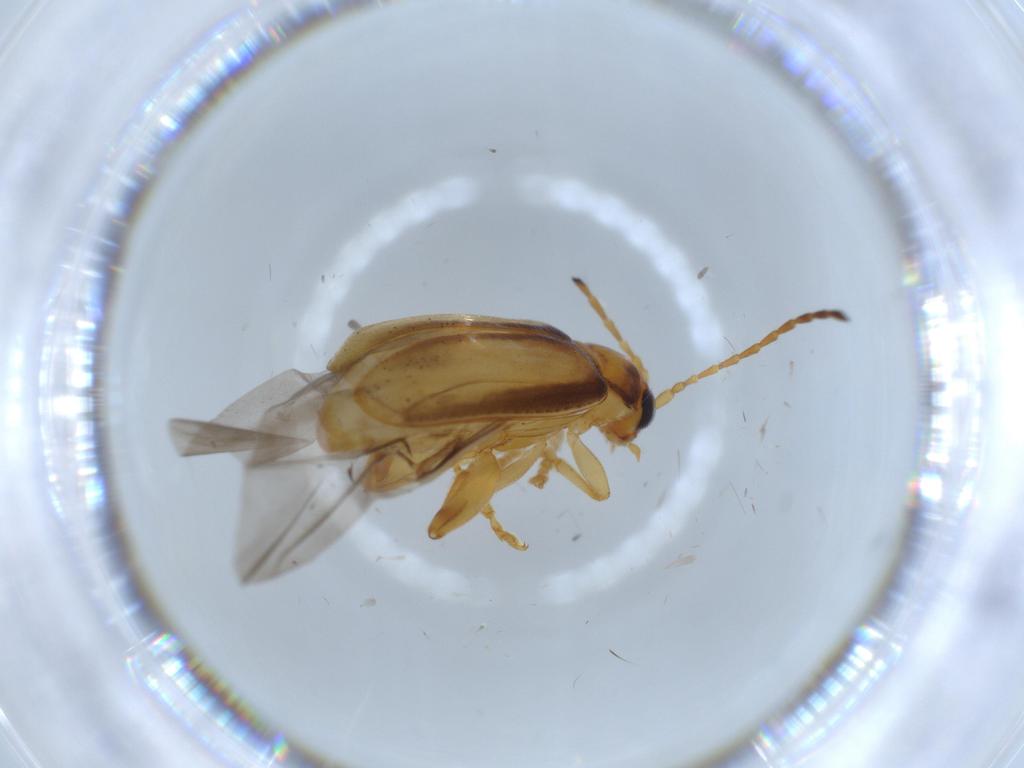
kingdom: Animalia
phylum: Arthropoda
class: Insecta
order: Coleoptera
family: Chrysomelidae
